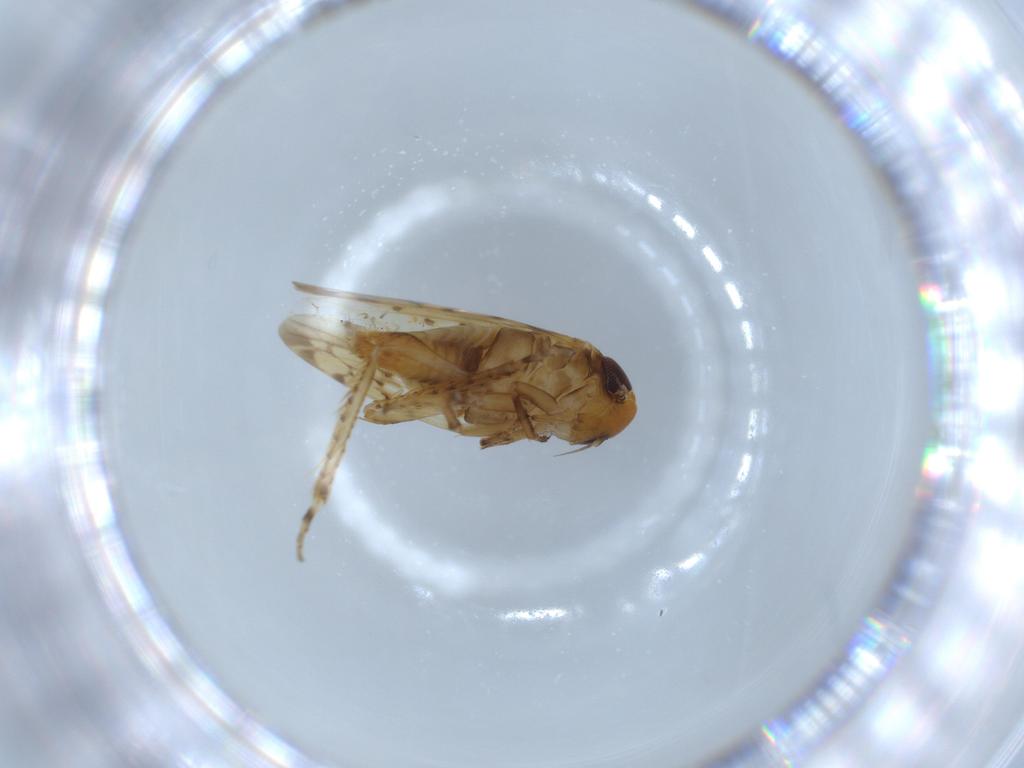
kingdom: Animalia
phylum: Arthropoda
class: Insecta
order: Hemiptera
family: Cicadellidae
